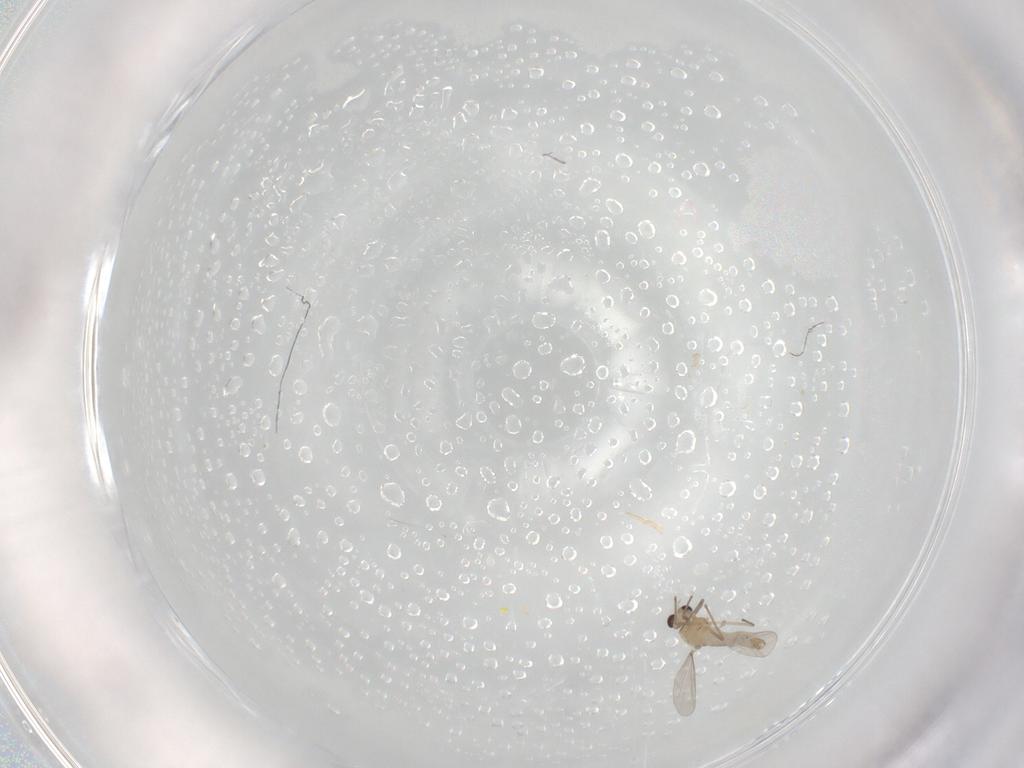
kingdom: Animalia
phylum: Arthropoda
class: Insecta
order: Diptera
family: Chironomidae
